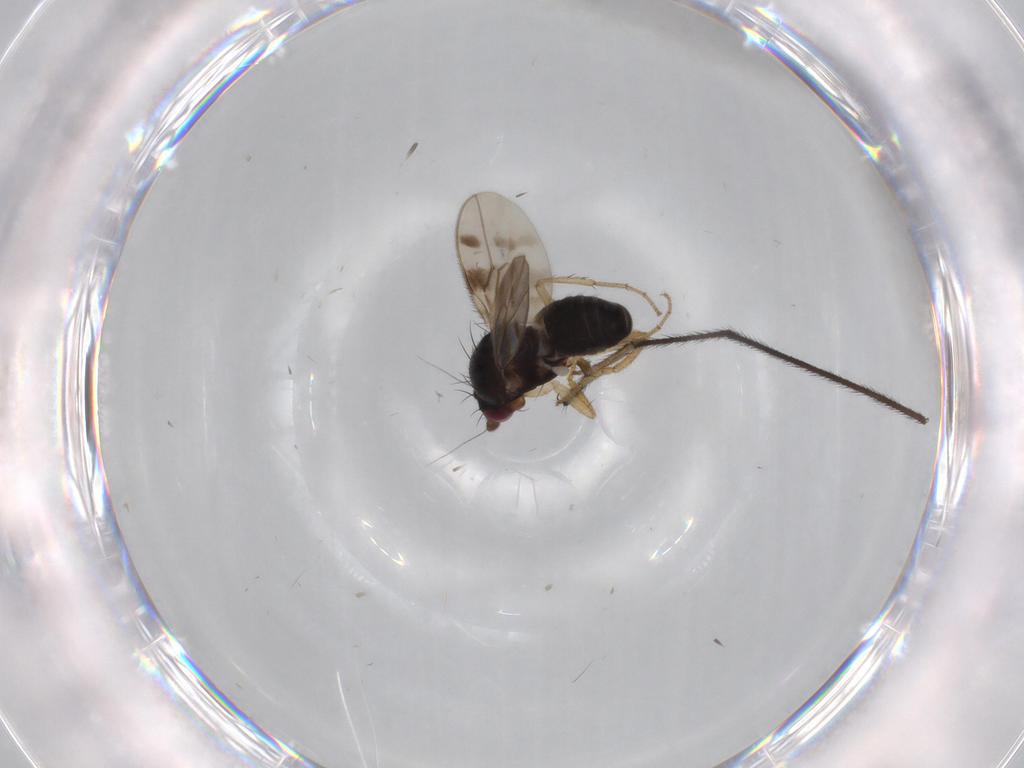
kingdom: Animalia
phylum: Arthropoda
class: Insecta
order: Diptera
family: Sphaeroceridae
